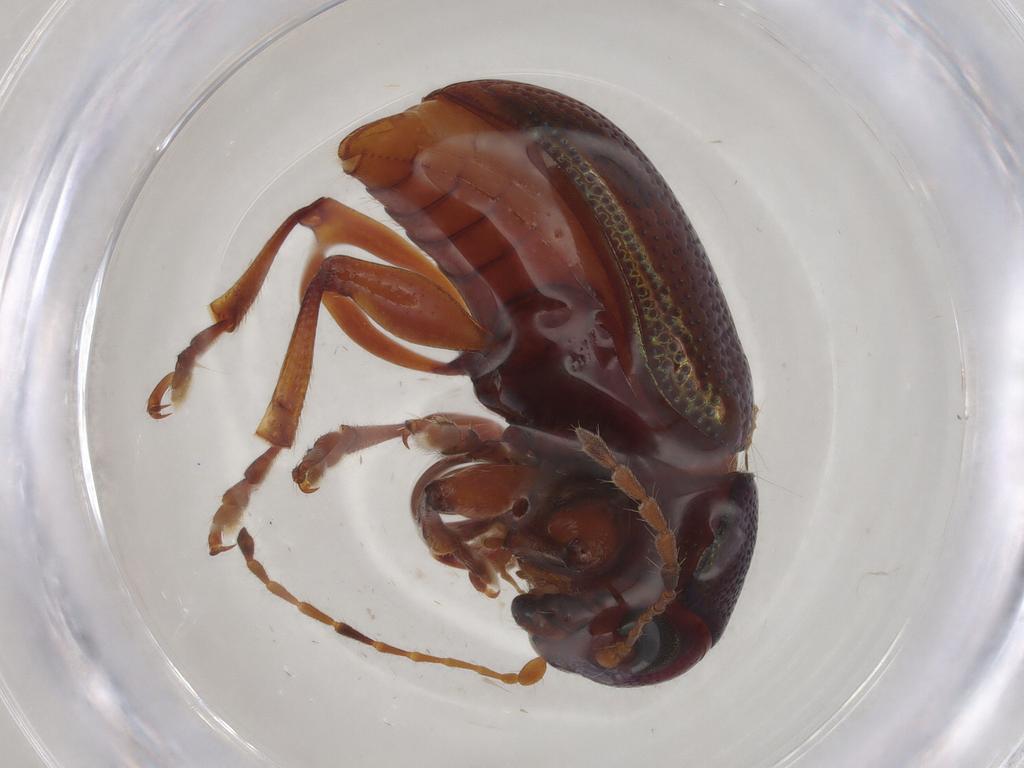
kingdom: Animalia
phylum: Arthropoda
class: Insecta
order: Coleoptera
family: Chrysomelidae
